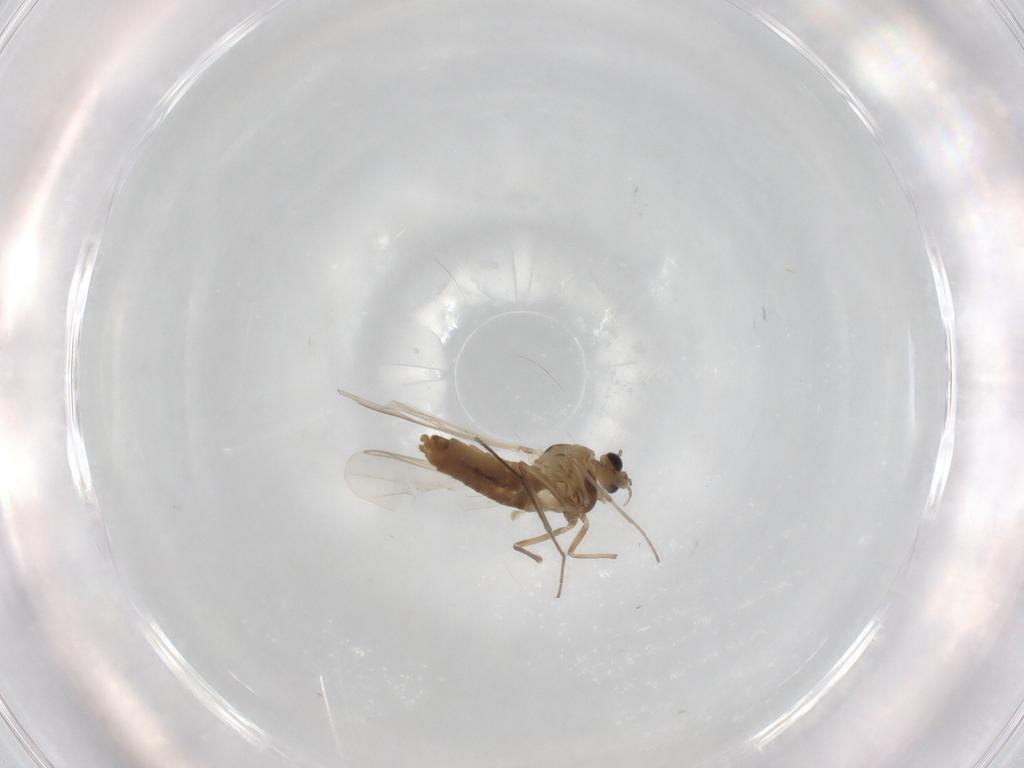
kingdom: Animalia
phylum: Arthropoda
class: Insecta
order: Diptera
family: Chironomidae
